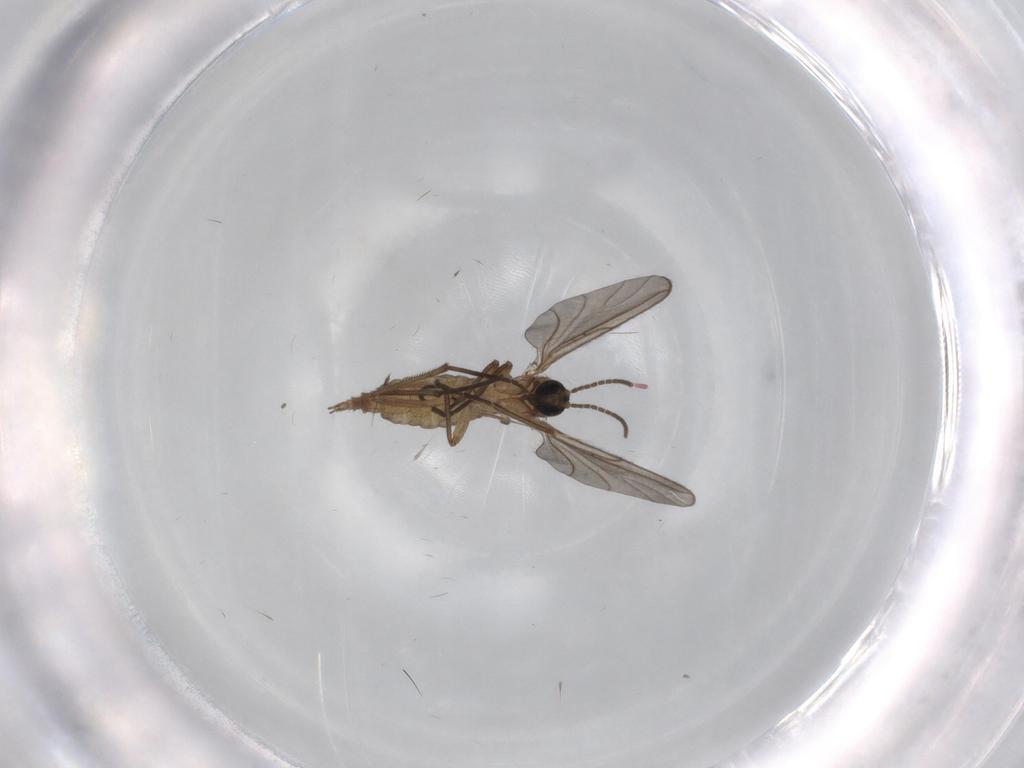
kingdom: Animalia
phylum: Arthropoda
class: Insecta
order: Diptera
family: Sciaridae
